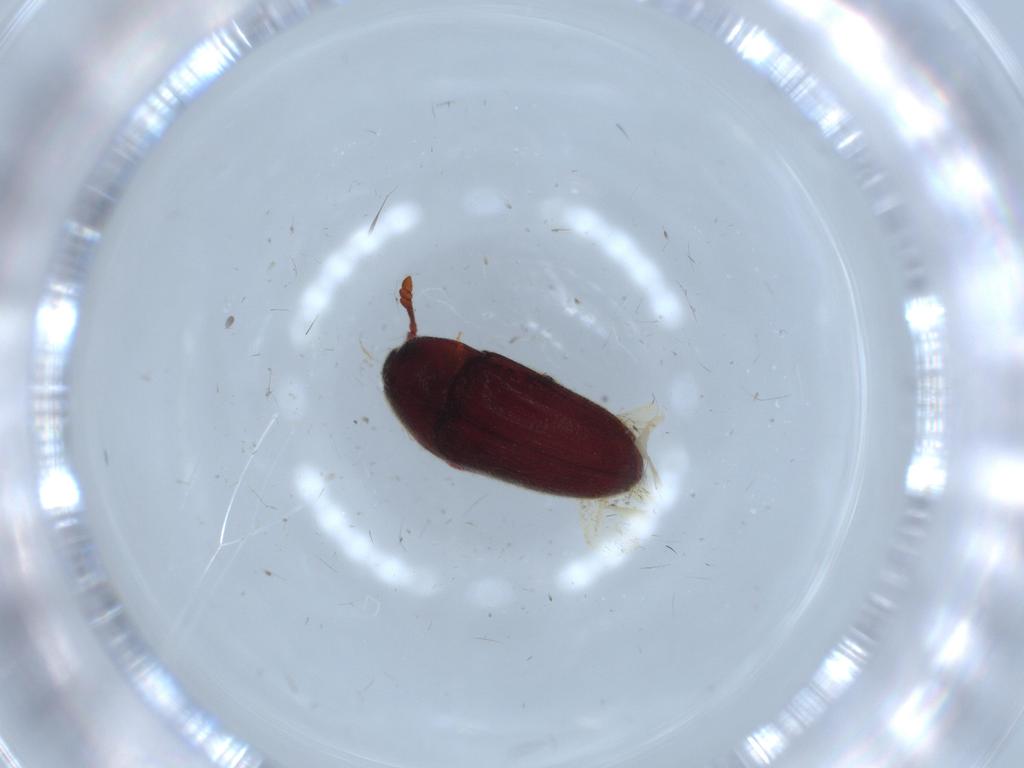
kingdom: Animalia
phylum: Arthropoda
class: Insecta
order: Coleoptera
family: Throscidae
